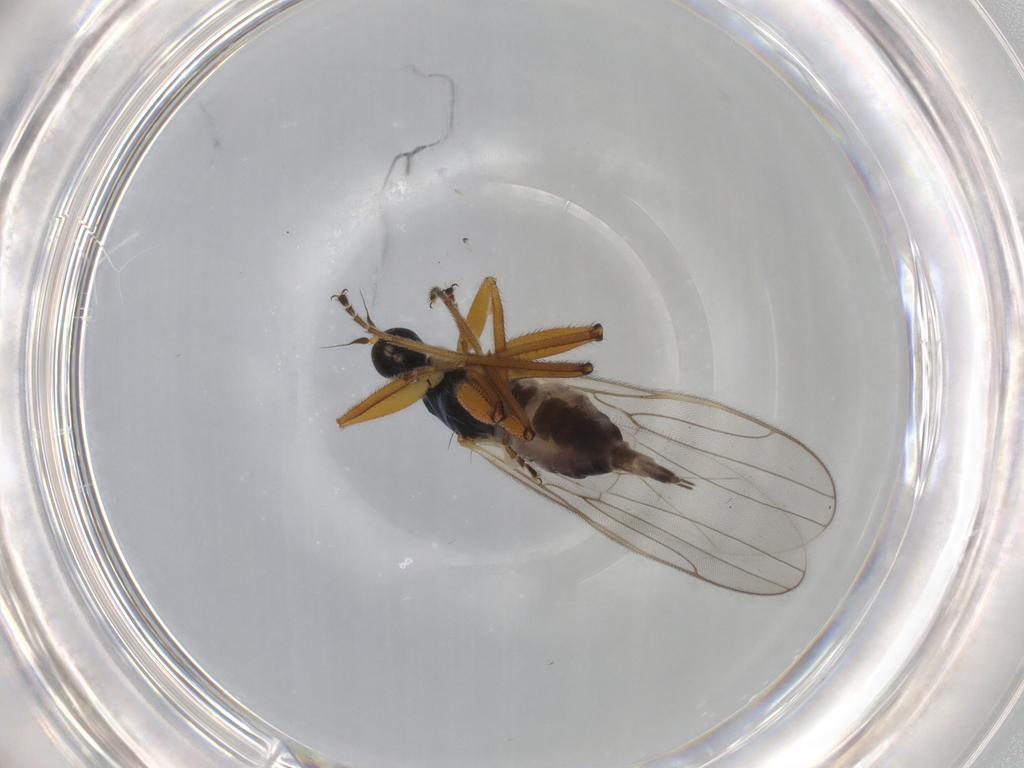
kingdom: Animalia
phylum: Arthropoda
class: Insecta
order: Diptera
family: Hybotidae
